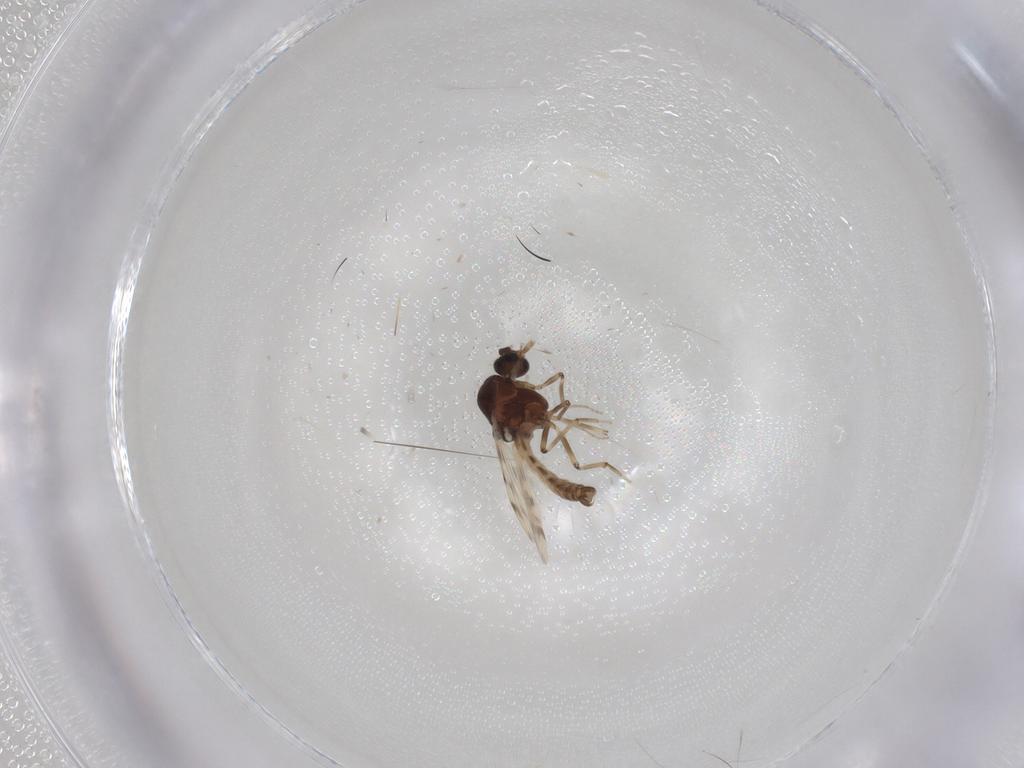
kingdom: Animalia
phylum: Arthropoda
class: Insecta
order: Diptera
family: Ceratopogonidae
